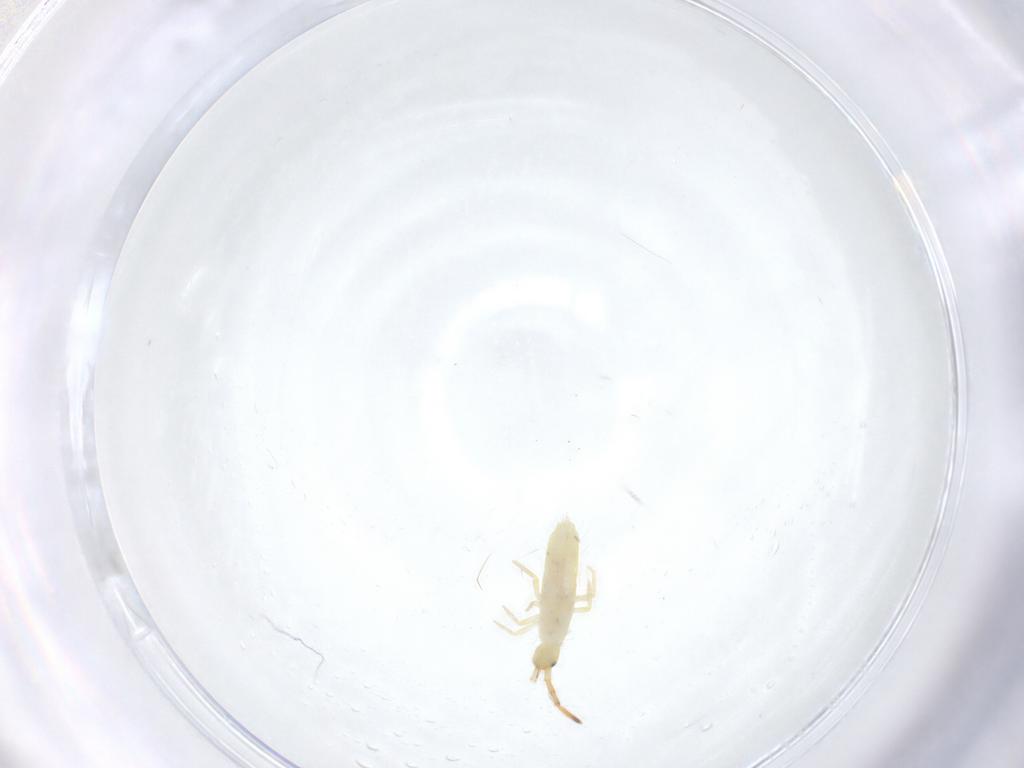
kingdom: Animalia
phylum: Arthropoda
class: Collembola
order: Entomobryomorpha
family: Entomobryidae
